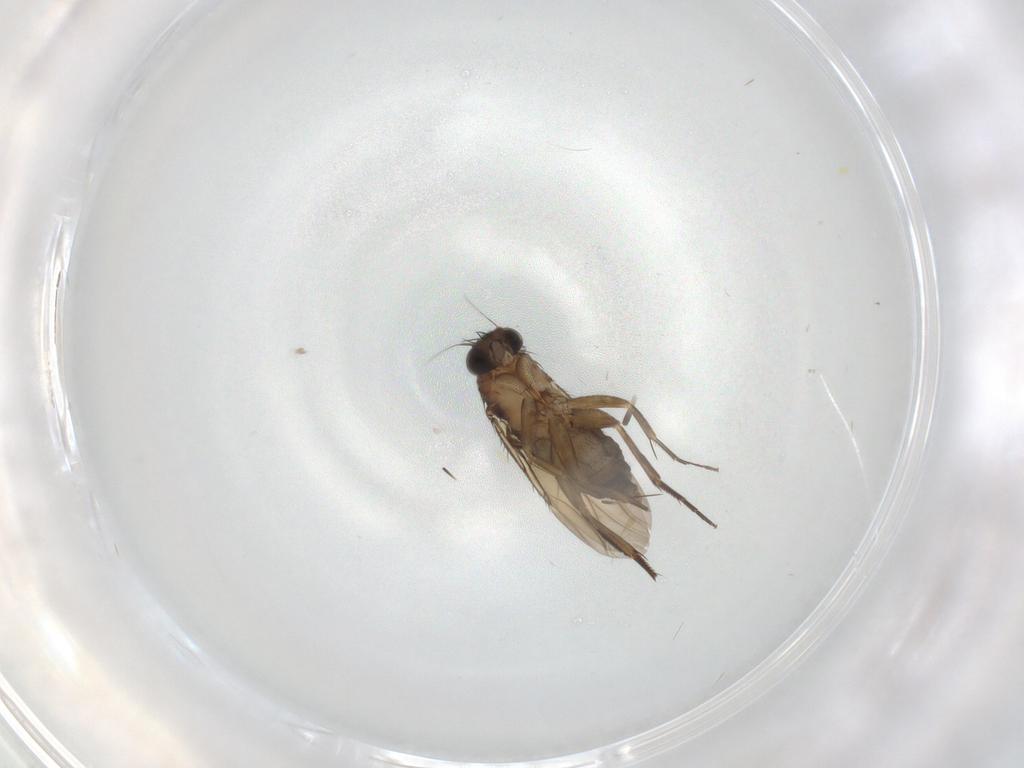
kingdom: Animalia
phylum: Arthropoda
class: Insecta
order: Diptera
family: Phoridae
